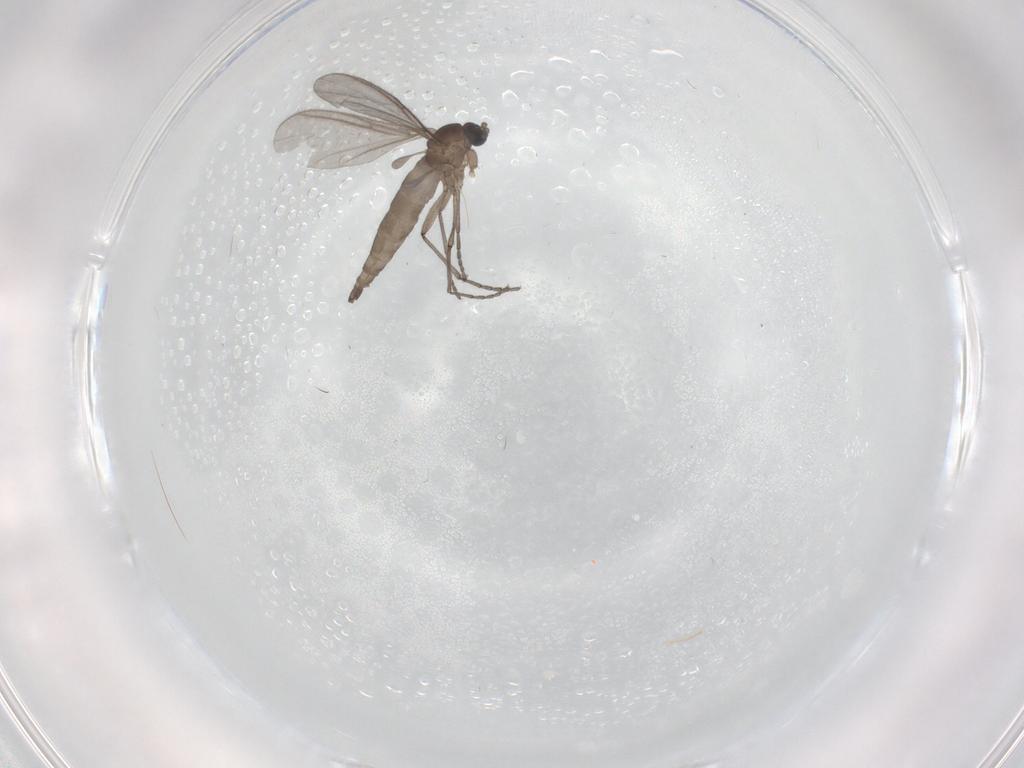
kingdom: Animalia
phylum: Arthropoda
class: Insecta
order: Diptera
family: Sciaridae
